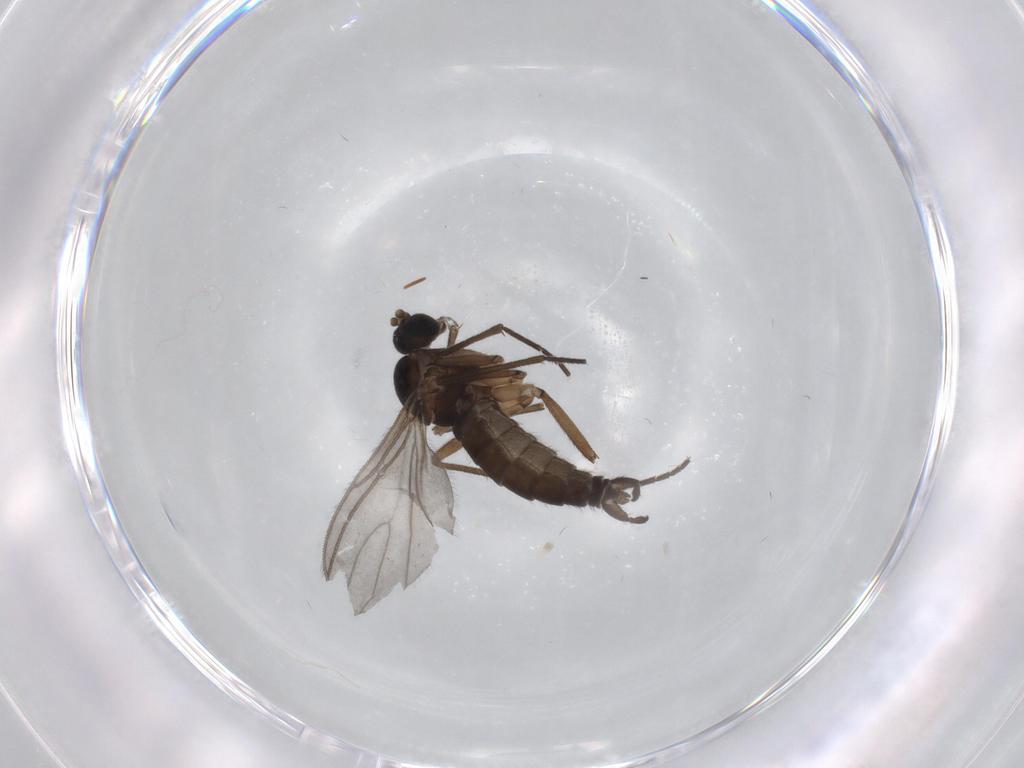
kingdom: Animalia
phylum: Arthropoda
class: Insecta
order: Diptera
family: Sciaridae
